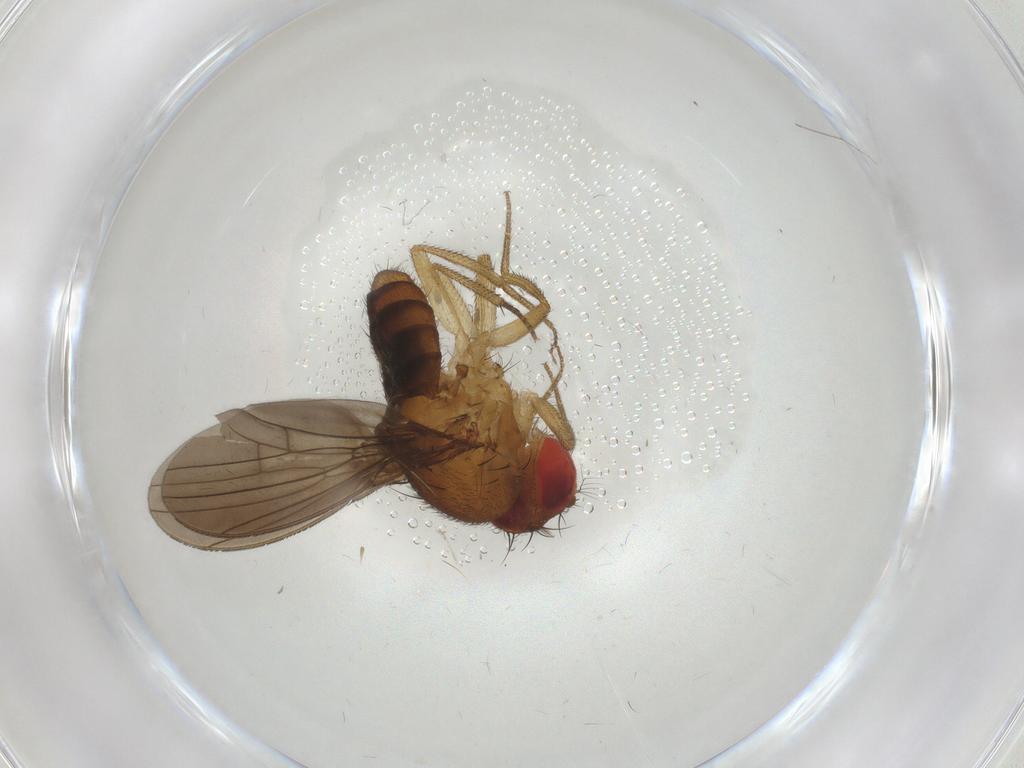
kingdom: Animalia
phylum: Arthropoda
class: Insecta
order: Diptera
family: Drosophilidae
